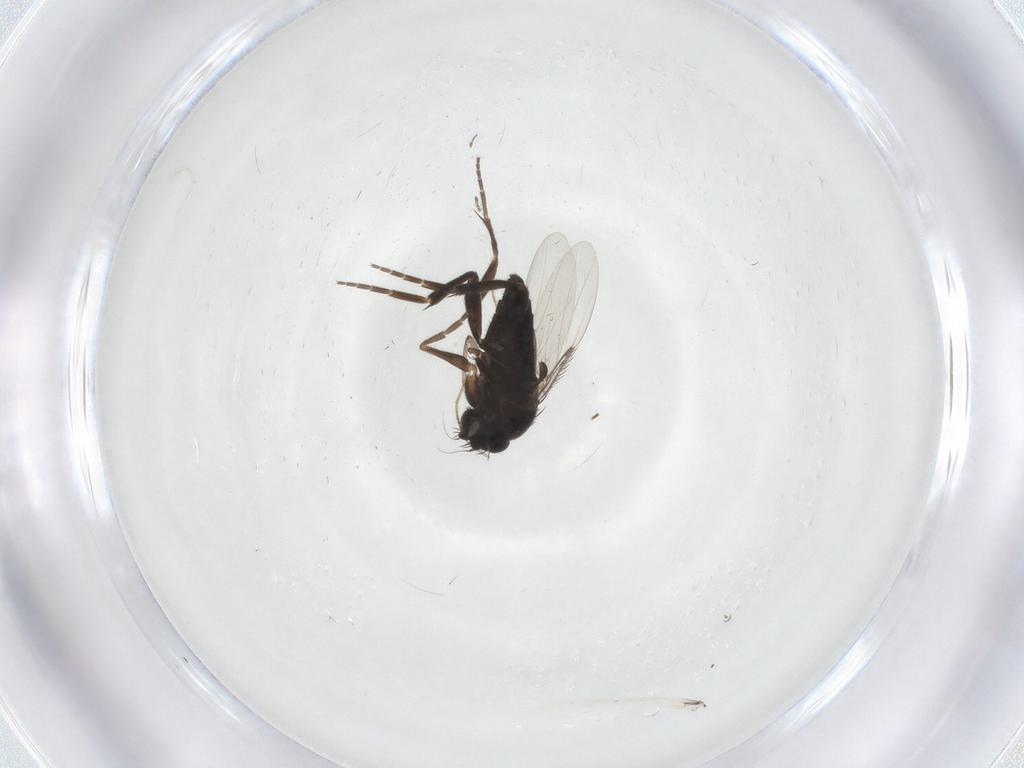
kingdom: Animalia
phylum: Arthropoda
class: Insecta
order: Diptera
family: Phoridae
